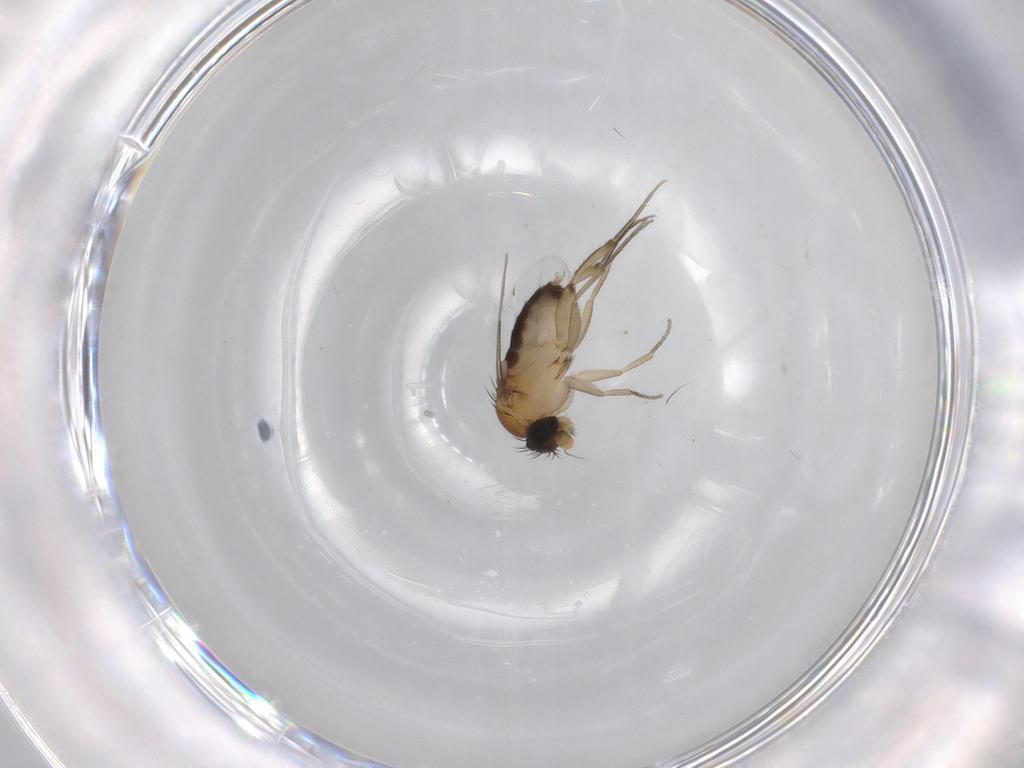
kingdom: Animalia
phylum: Arthropoda
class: Insecta
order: Diptera
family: Phoridae
